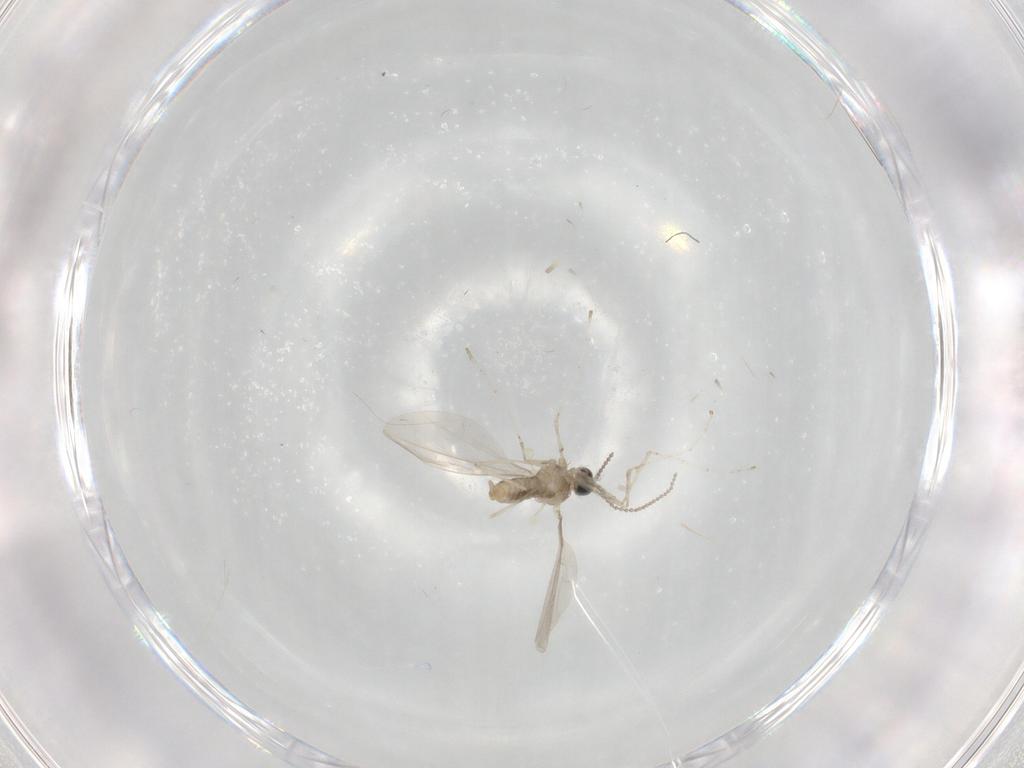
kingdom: Animalia
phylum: Arthropoda
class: Insecta
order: Diptera
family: Cecidomyiidae
